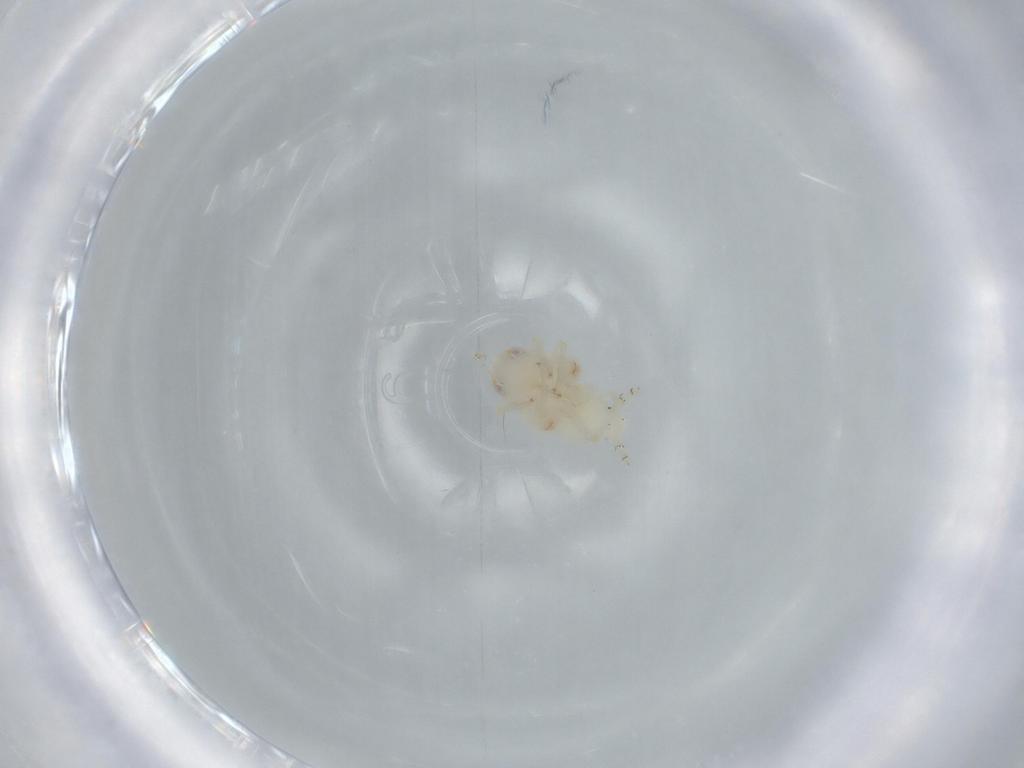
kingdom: Animalia
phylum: Arthropoda
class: Insecta
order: Hemiptera
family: Nogodinidae
